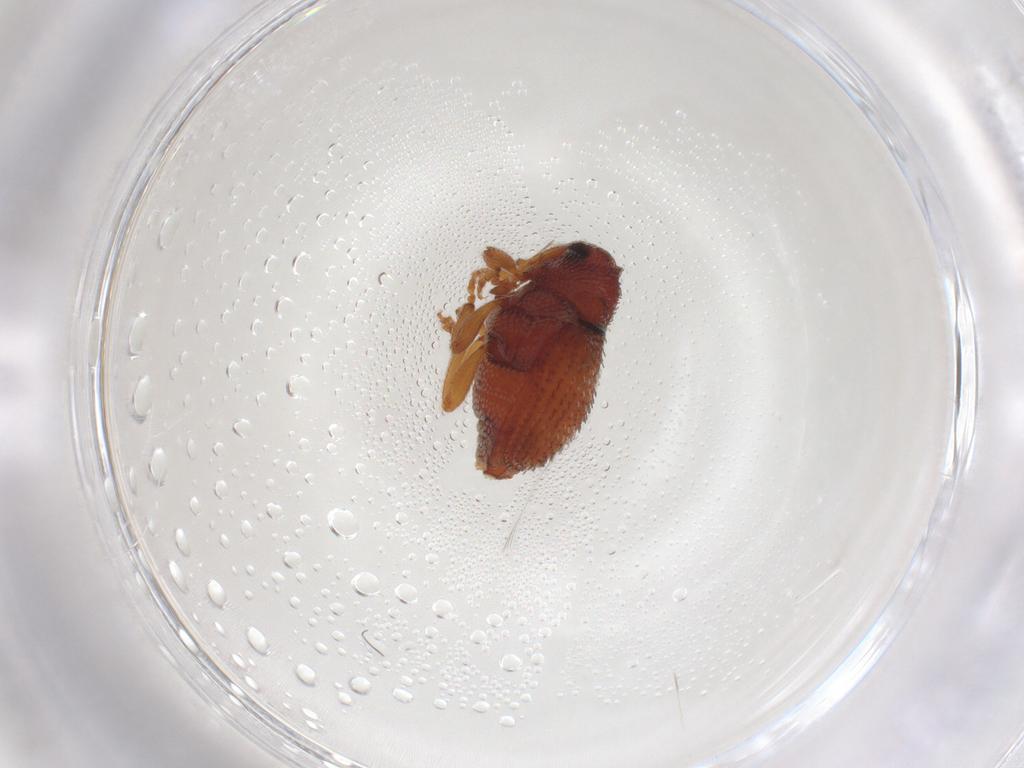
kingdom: Animalia
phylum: Arthropoda
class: Insecta
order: Coleoptera
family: Curculionidae
